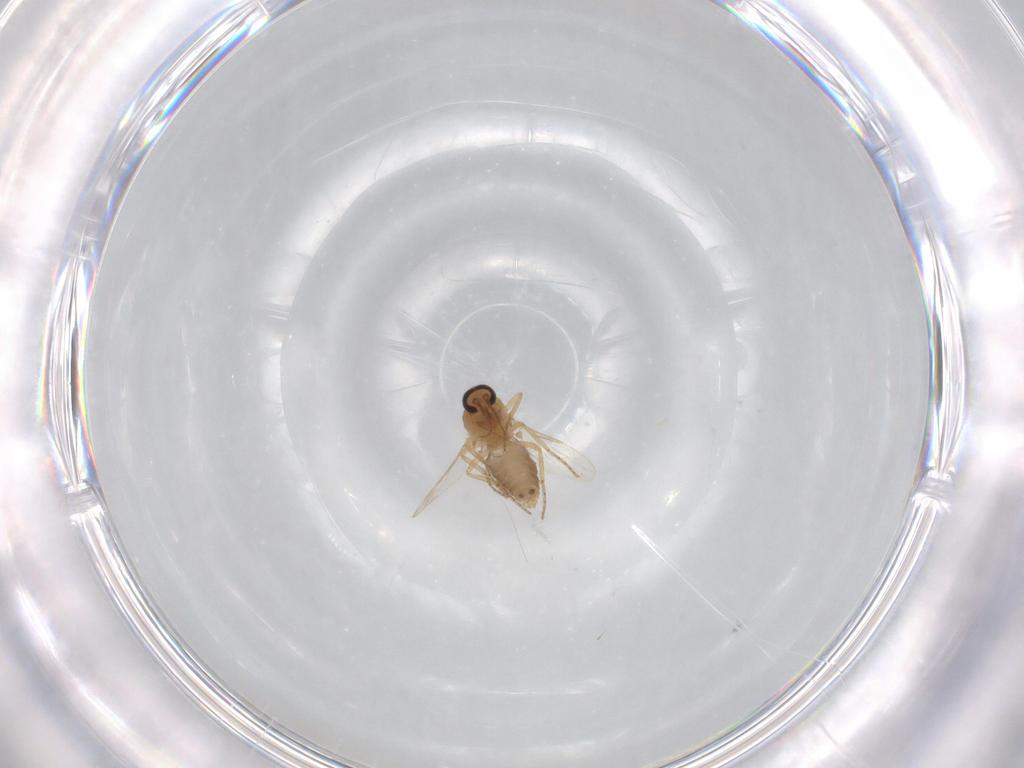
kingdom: Animalia
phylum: Arthropoda
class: Insecta
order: Diptera
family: Ceratopogonidae
